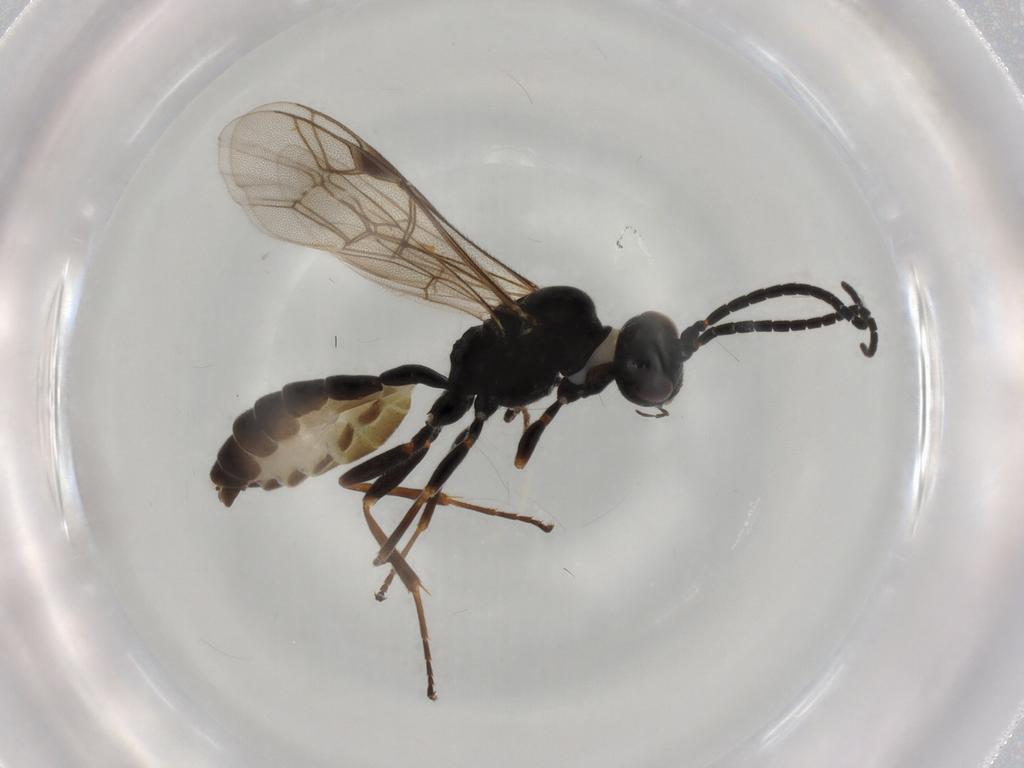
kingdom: Animalia
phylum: Arthropoda
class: Insecta
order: Hymenoptera
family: Ichneumonidae
